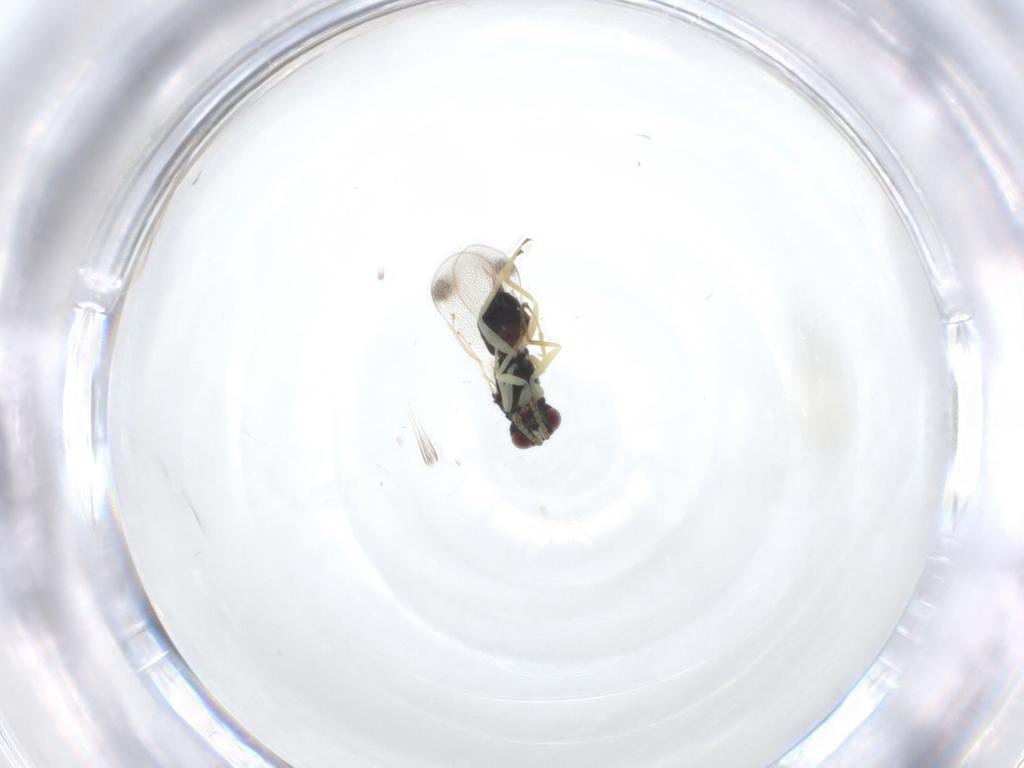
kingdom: Animalia
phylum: Arthropoda
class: Insecta
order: Hymenoptera
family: Eulophidae
